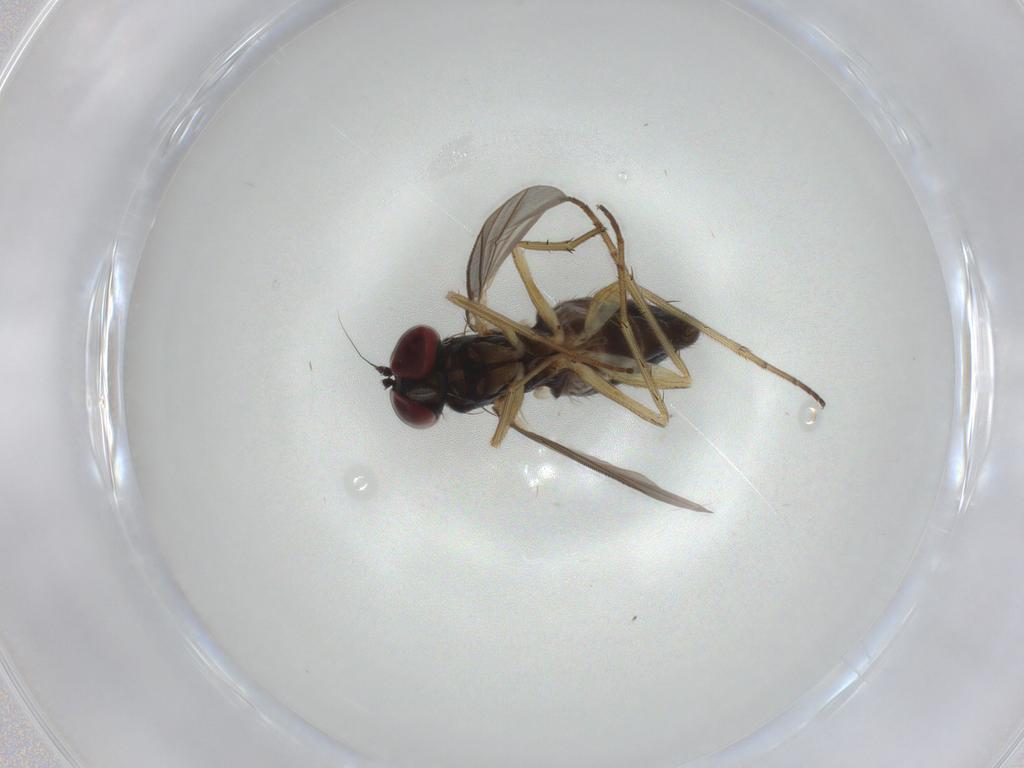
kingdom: Animalia
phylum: Arthropoda
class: Insecta
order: Diptera
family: Dolichopodidae
